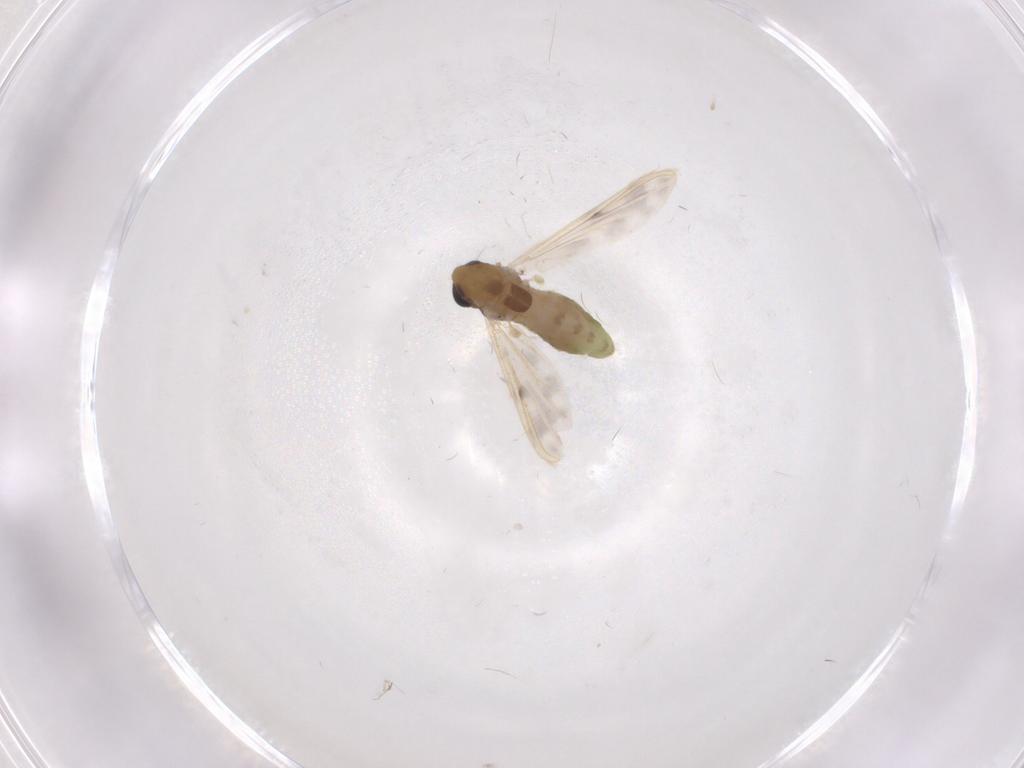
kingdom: Animalia
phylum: Arthropoda
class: Insecta
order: Diptera
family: Chironomidae
